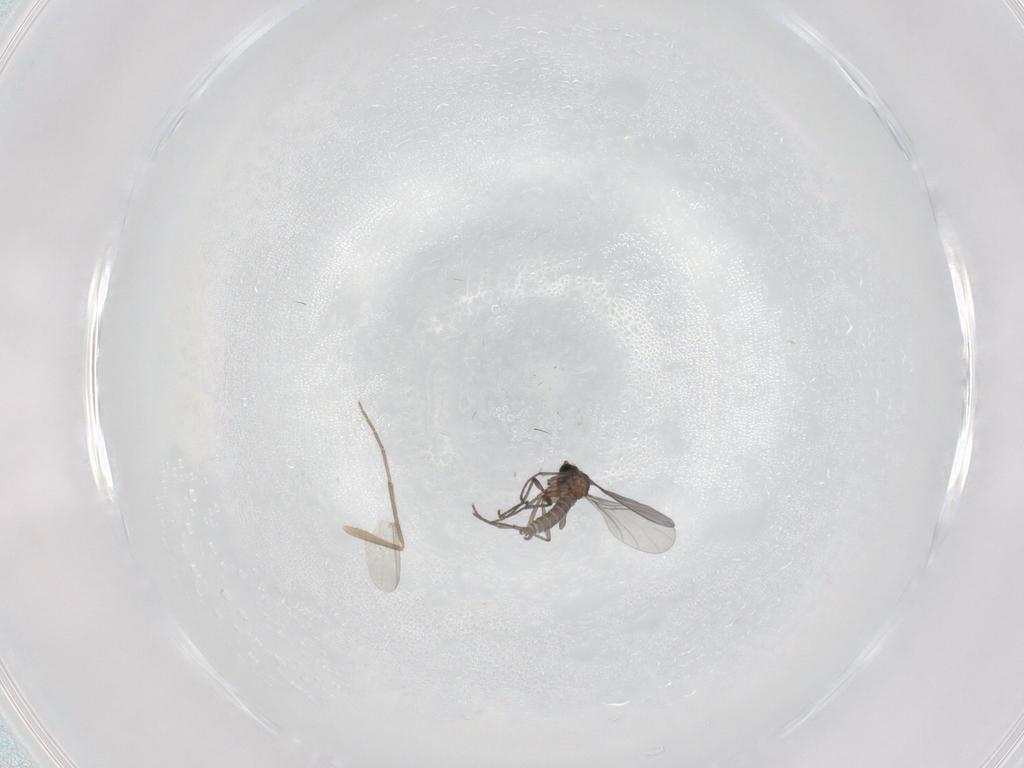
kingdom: Animalia
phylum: Arthropoda
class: Insecta
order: Diptera
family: Sciaridae
